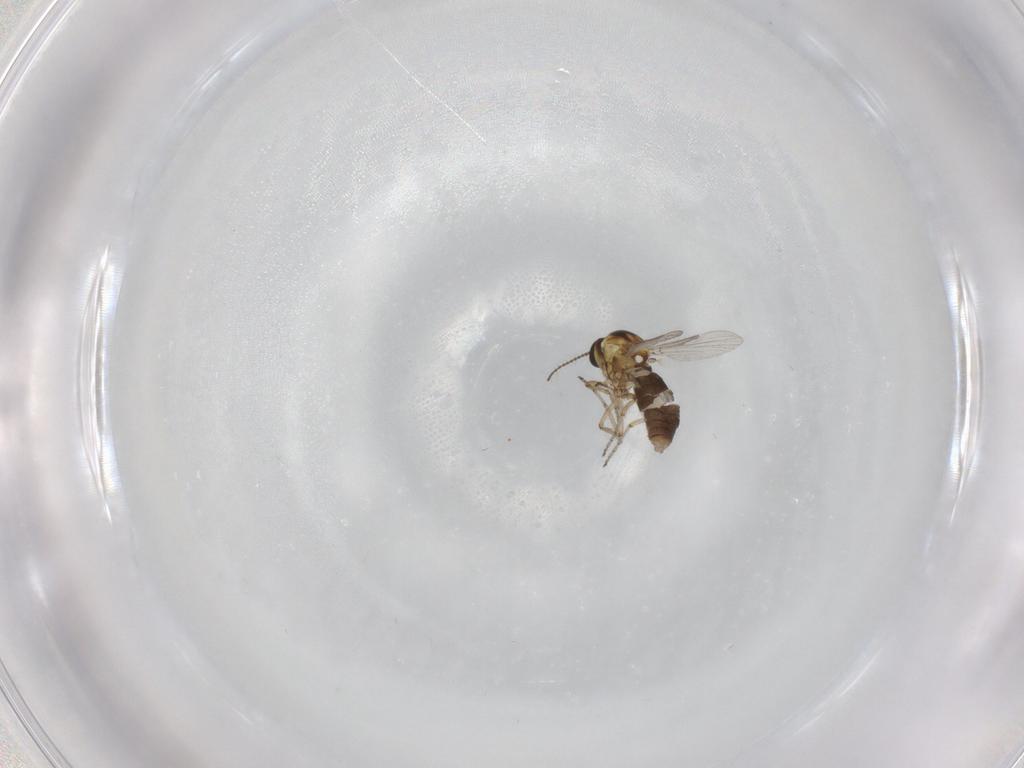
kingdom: Animalia
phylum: Arthropoda
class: Insecta
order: Diptera
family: Ceratopogonidae
